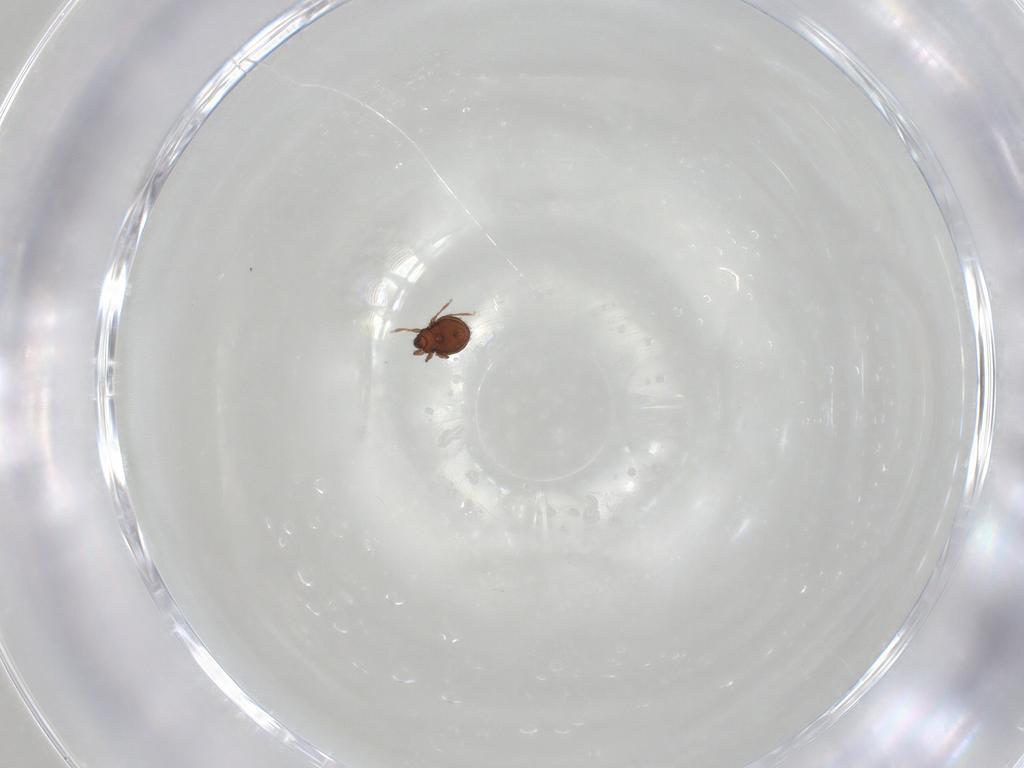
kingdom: Animalia
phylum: Arthropoda
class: Arachnida
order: Sarcoptiformes
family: Scheloribatidae
